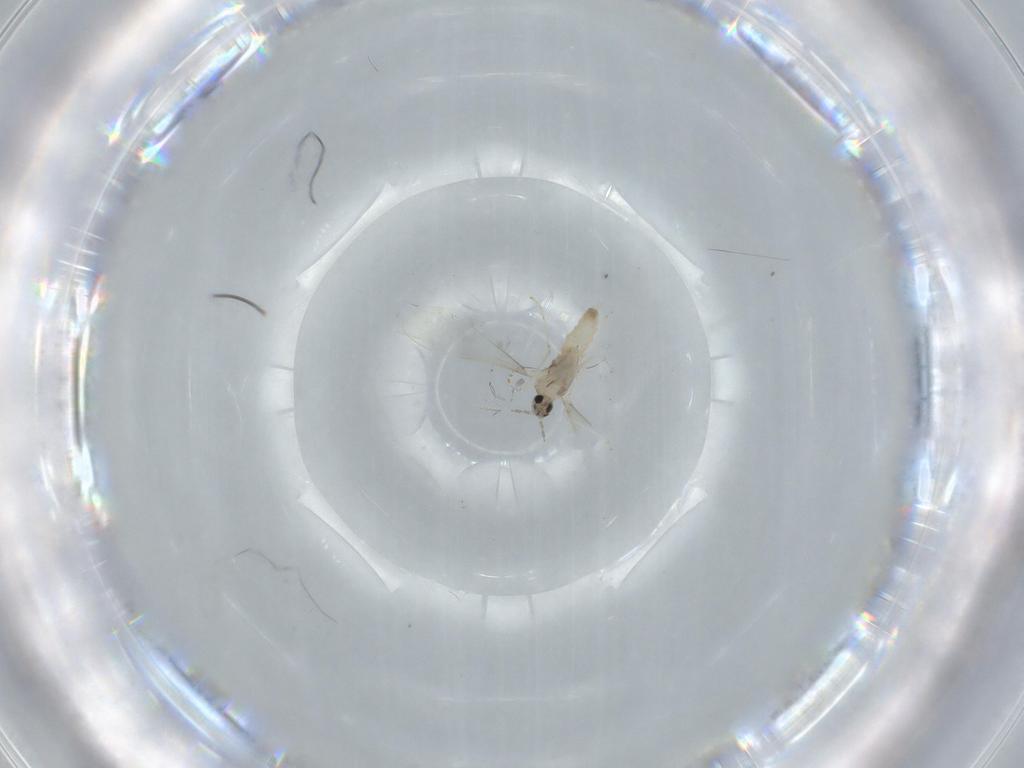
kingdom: Animalia
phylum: Arthropoda
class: Insecta
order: Diptera
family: Cecidomyiidae
